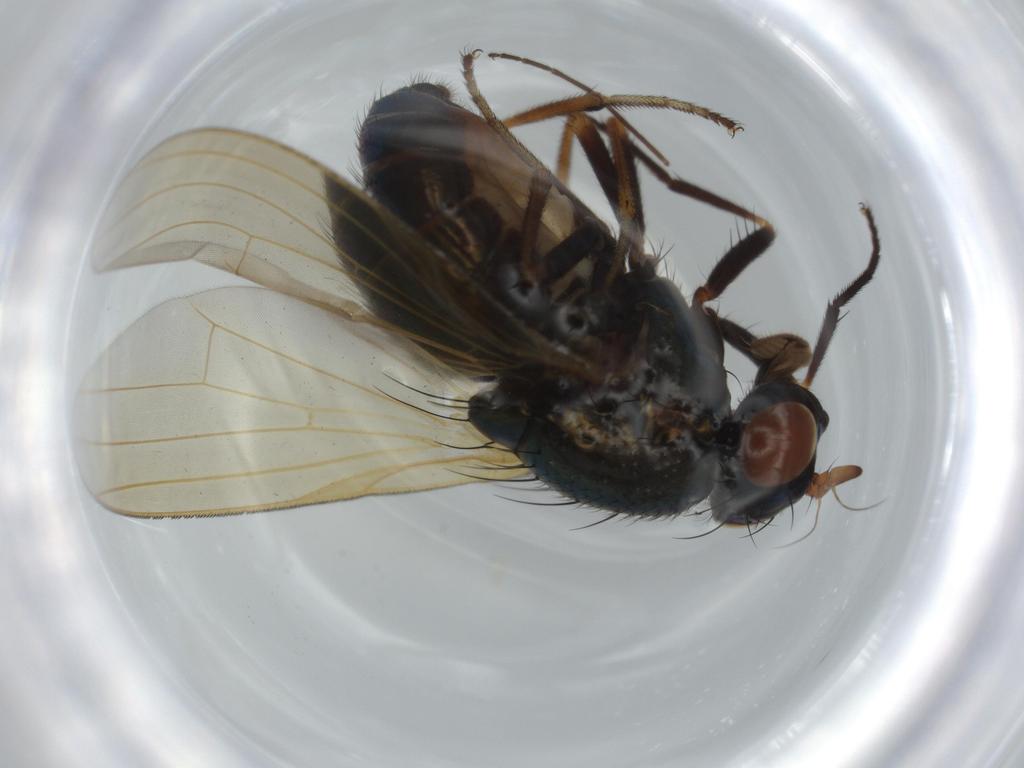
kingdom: Animalia
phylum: Arthropoda
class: Insecta
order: Diptera
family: Lauxaniidae
